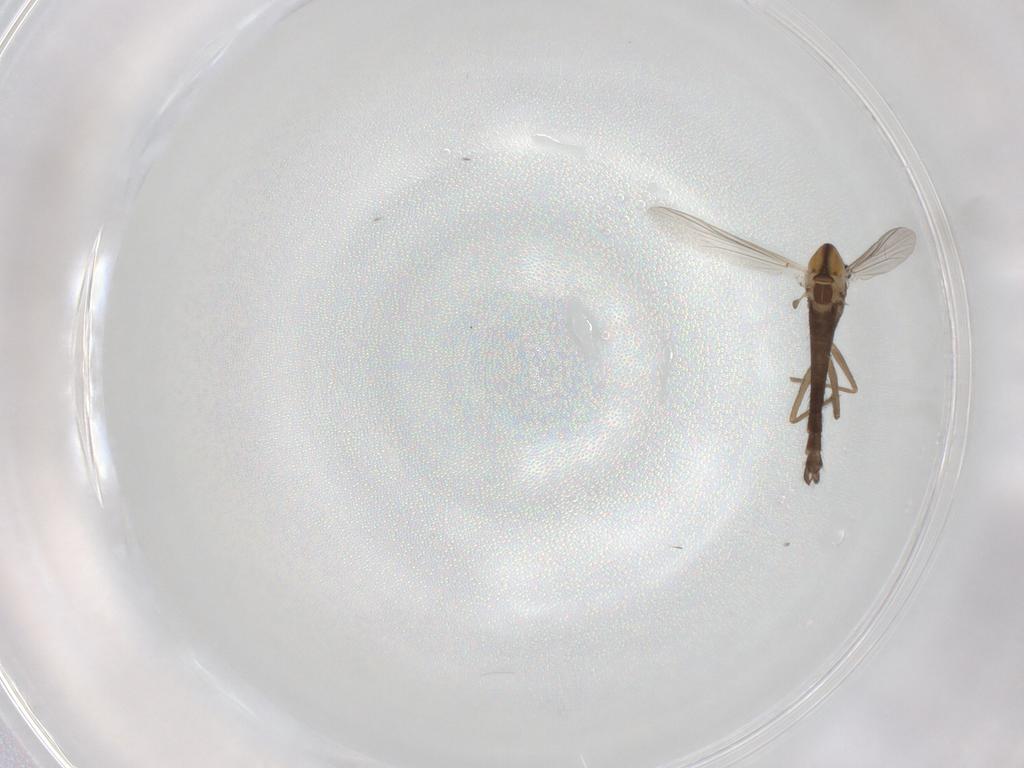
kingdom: Animalia
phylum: Arthropoda
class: Insecta
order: Diptera
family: Chironomidae
